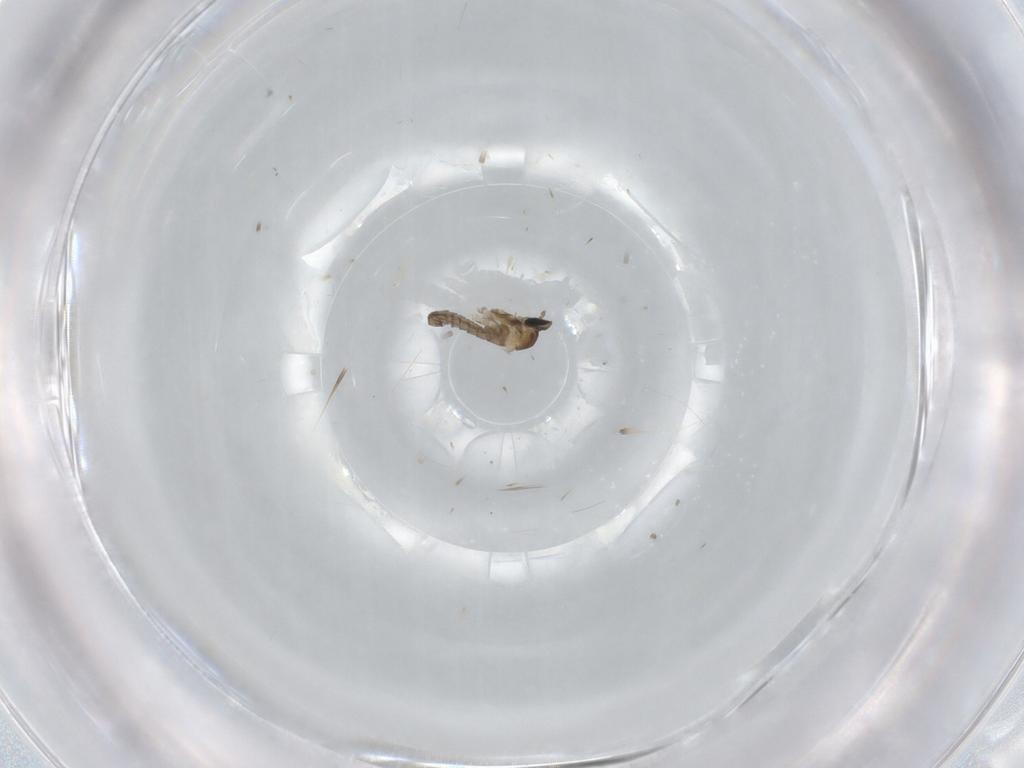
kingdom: Animalia
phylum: Arthropoda
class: Insecta
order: Diptera
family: Cecidomyiidae
